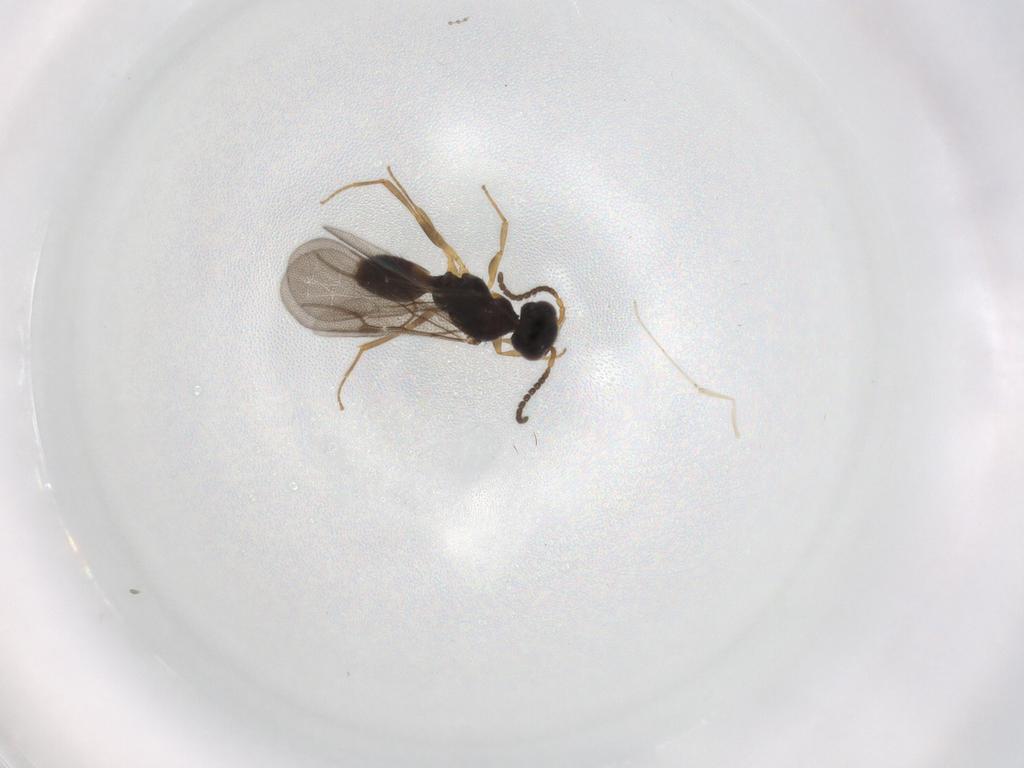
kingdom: Animalia
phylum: Arthropoda
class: Insecta
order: Hymenoptera
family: Bethylidae
